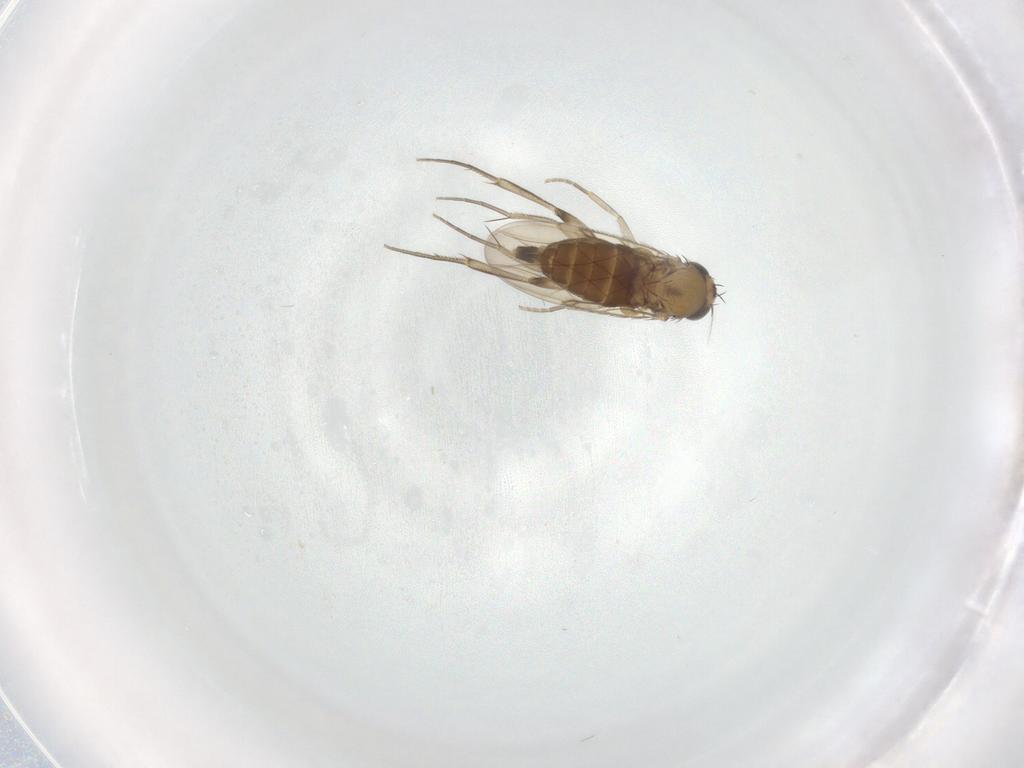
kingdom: Animalia
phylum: Arthropoda
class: Insecta
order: Diptera
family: Phoridae
